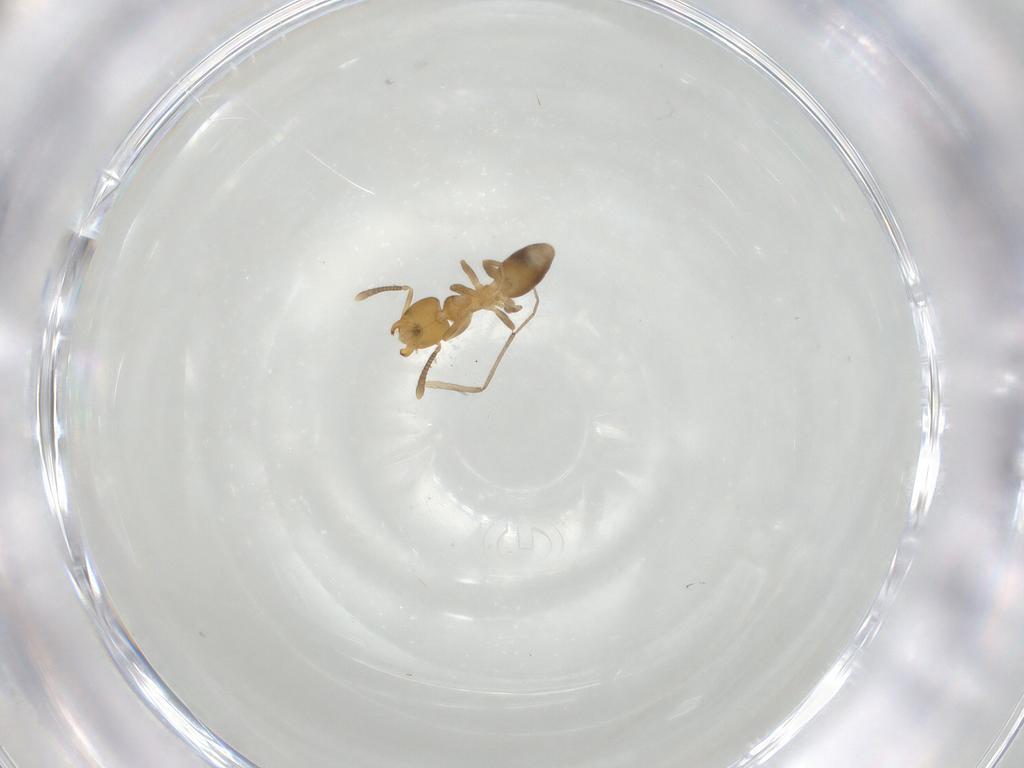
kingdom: Animalia
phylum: Arthropoda
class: Insecta
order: Hymenoptera
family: Formicidae
